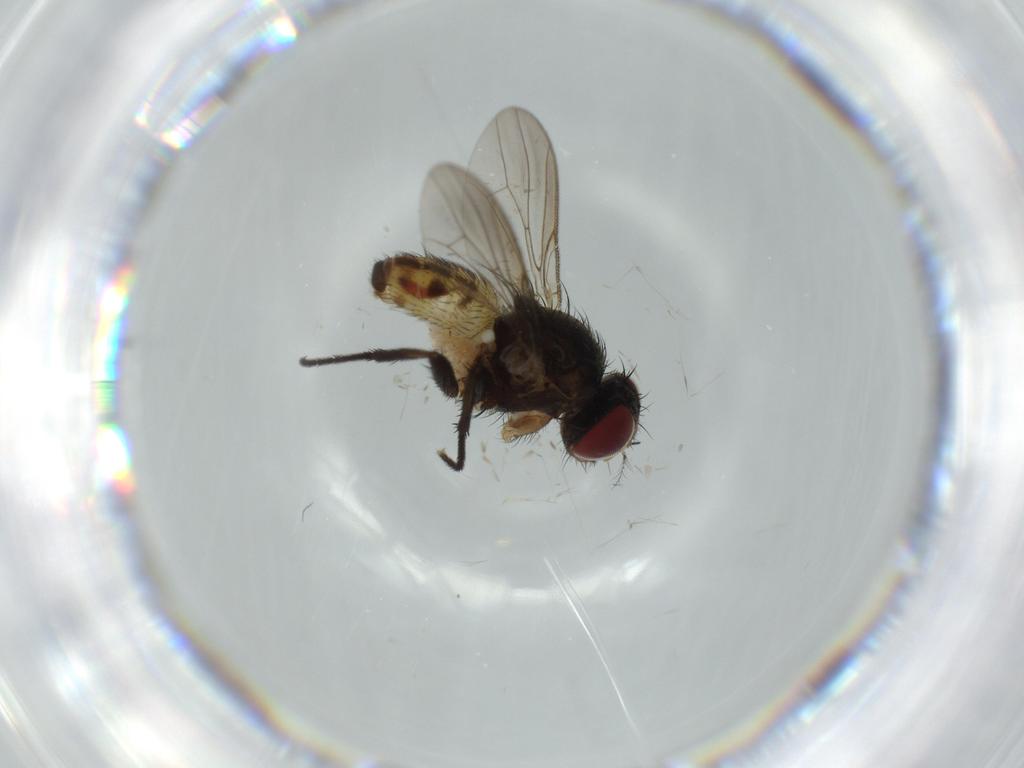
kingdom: Animalia
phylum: Arthropoda
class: Insecta
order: Diptera
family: Anthomyiidae
